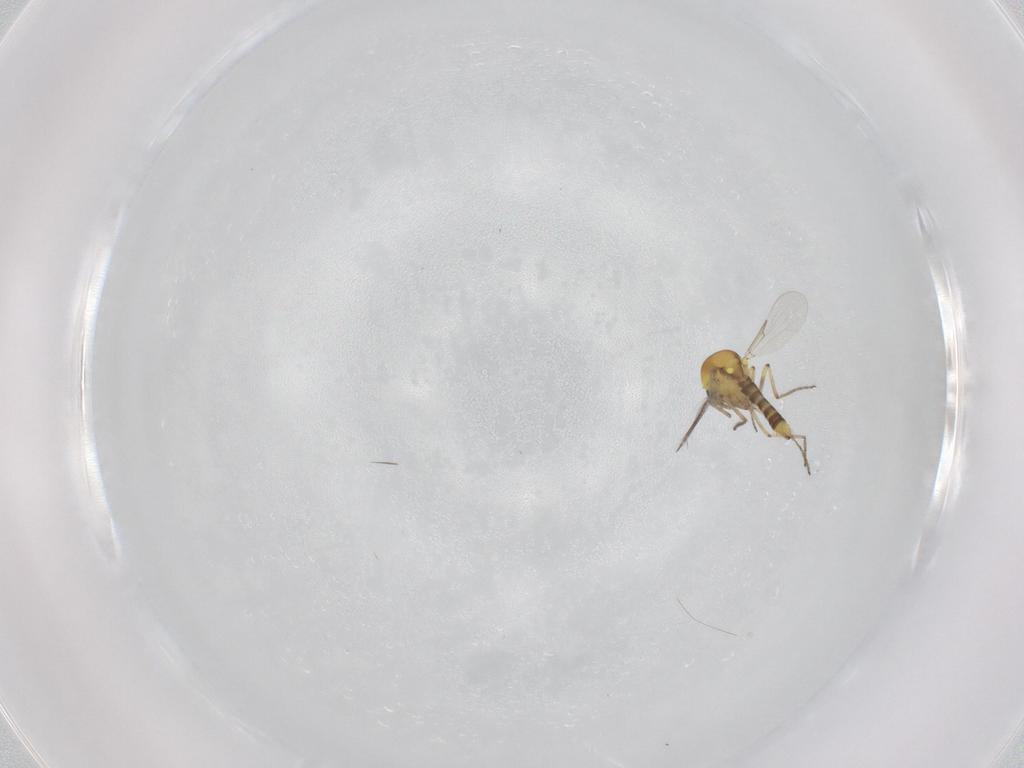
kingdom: Animalia
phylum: Arthropoda
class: Insecta
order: Diptera
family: Ceratopogonidae
